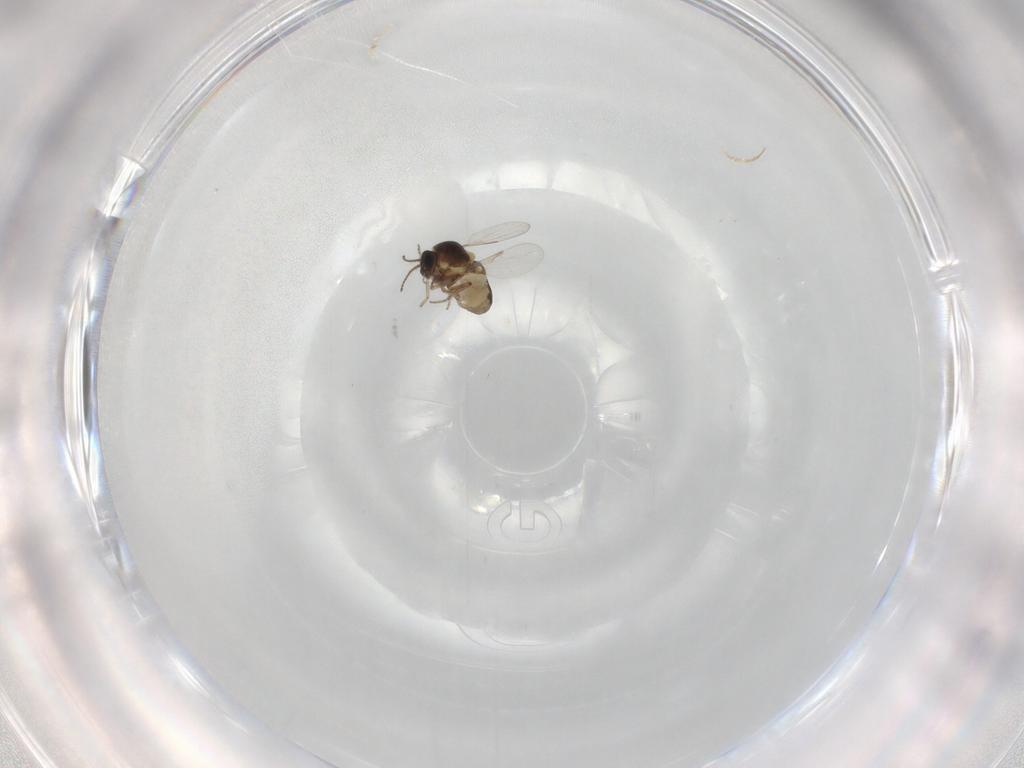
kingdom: Animalia
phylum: Arthropoda
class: Insecta
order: Diptera
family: Ceratopogonidae
